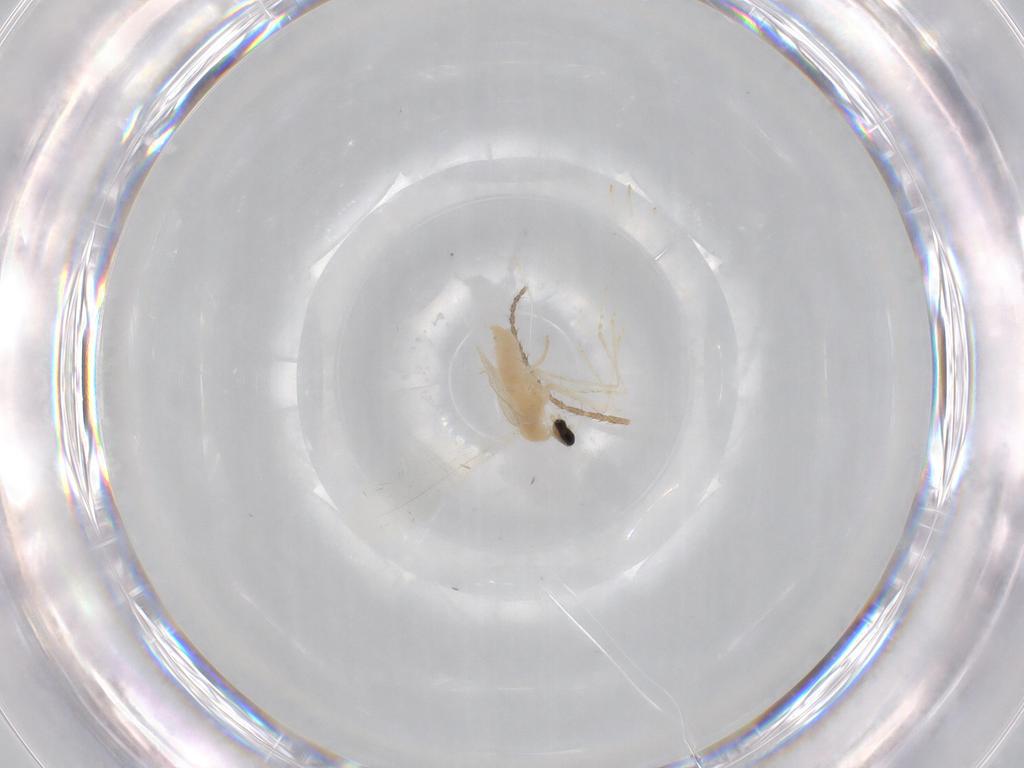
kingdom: Animalia
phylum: Arthropoda
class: Insecta
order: Diptera
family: Cecidomyiidae
